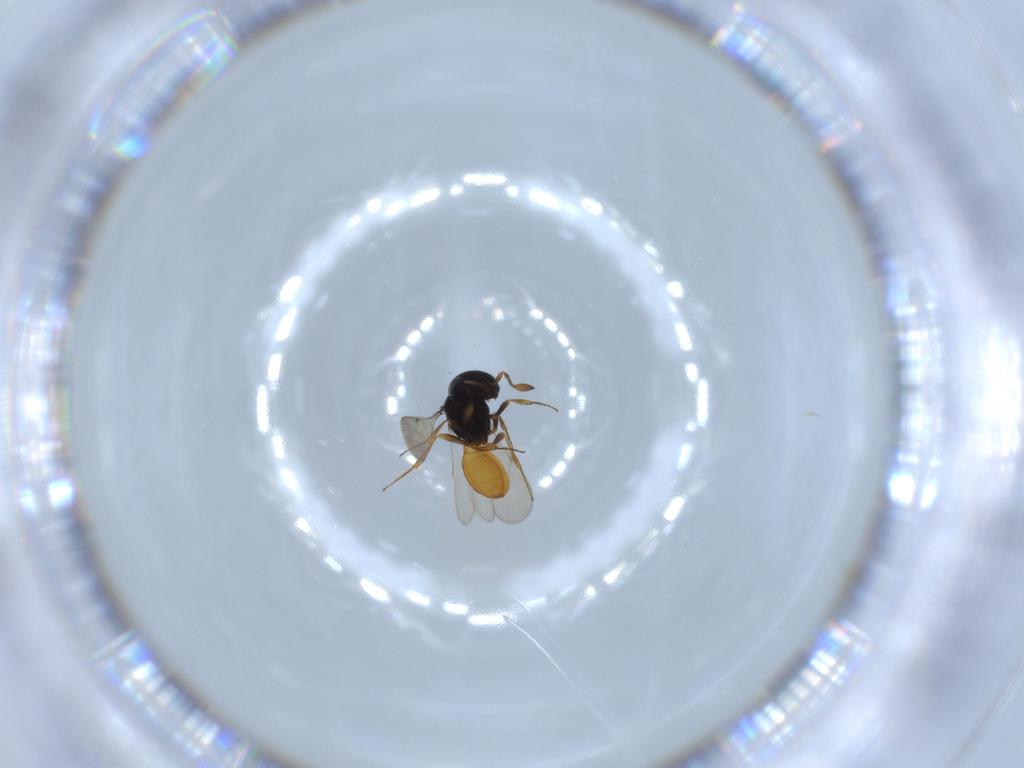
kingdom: Animalia
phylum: Arthropoda
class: Insecta
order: Hymenoptera
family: Scelionidae
